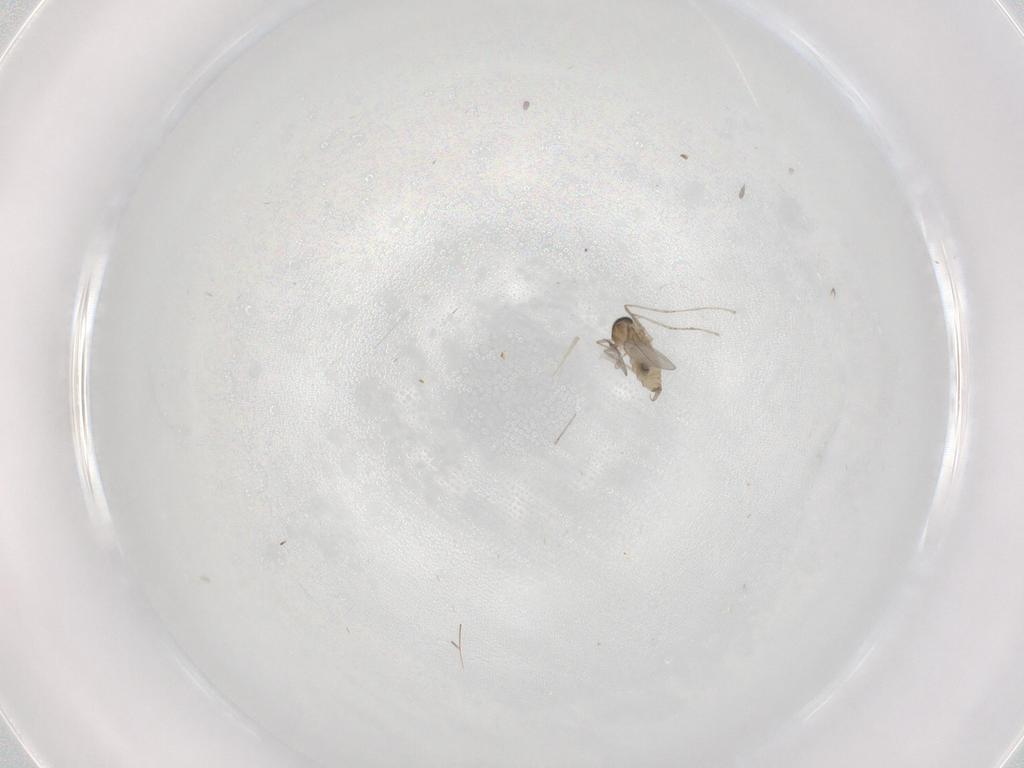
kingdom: Animalia
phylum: Arthropoda
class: Insecta
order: Diptera
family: Cecidomyiidae
